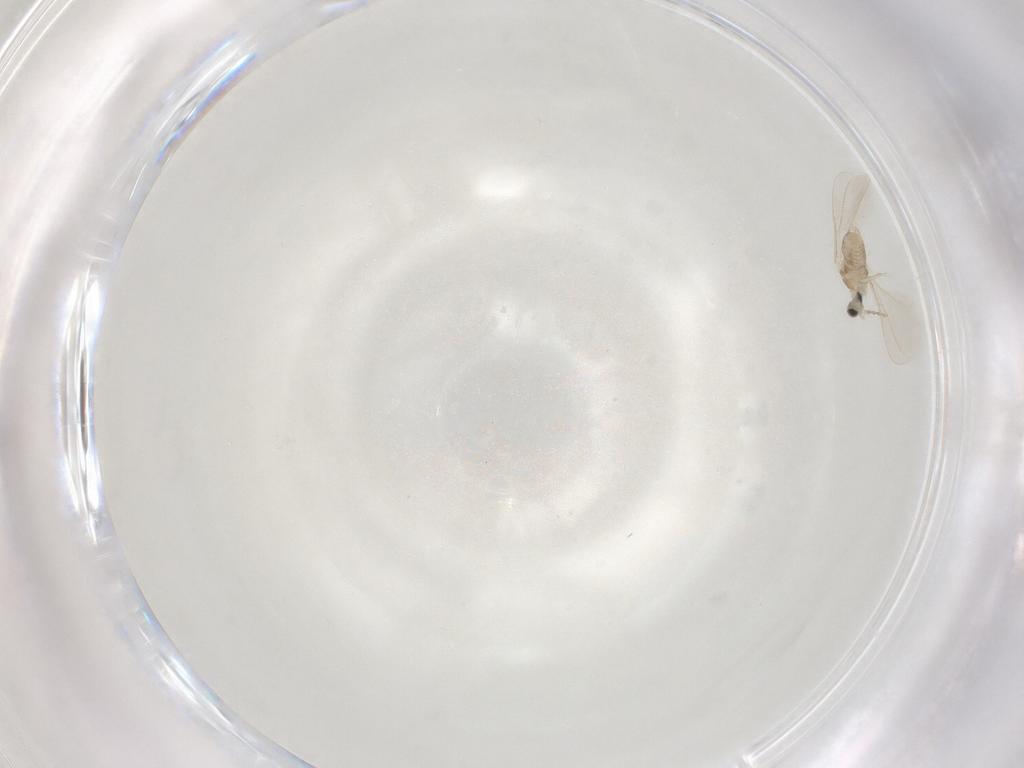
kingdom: Animalia
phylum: Arthropoda
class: Insecta
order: Diptera
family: Cecidomyiidae
